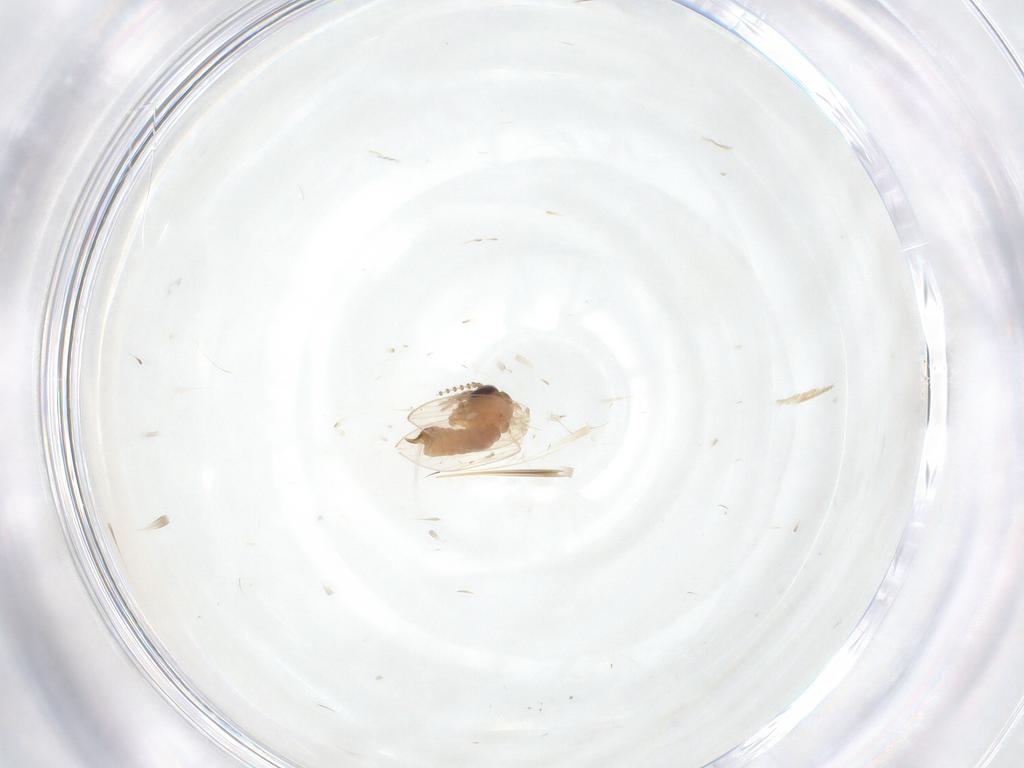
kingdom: Animalia
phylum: Arthropoda
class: Insecta
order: Diptera
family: Psychodidae
